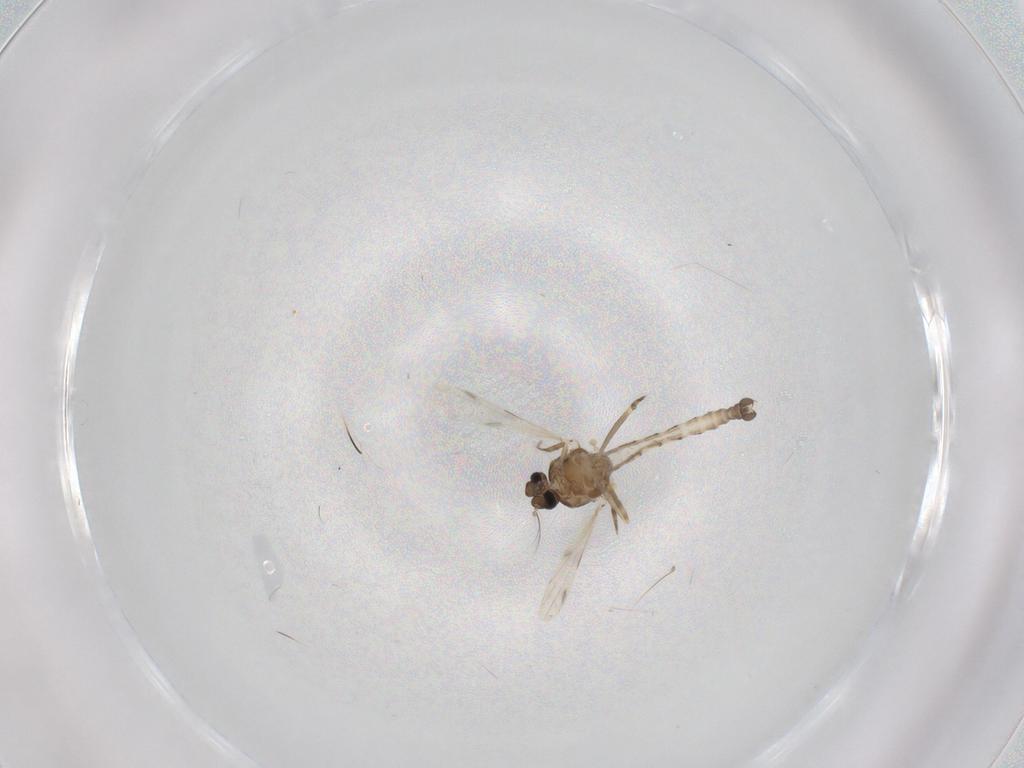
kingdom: Animalia
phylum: Arthropoda
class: Insecta
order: Diptera
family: Ceratopogonidae
